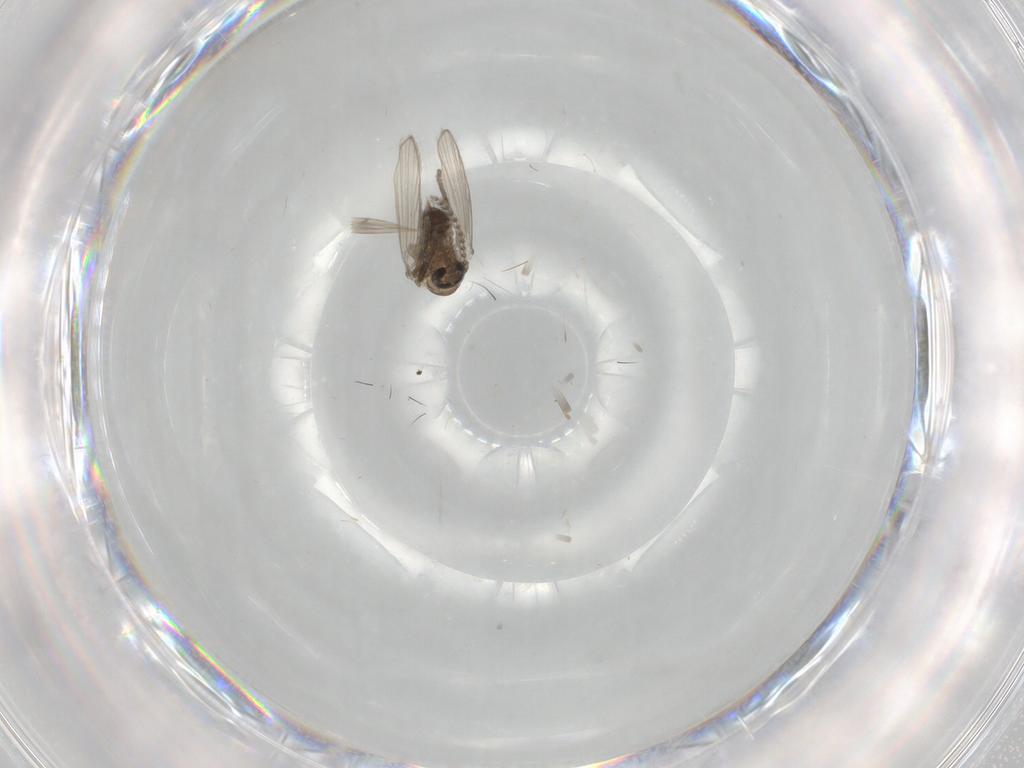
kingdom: Animalia
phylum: Arthropoda
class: Insecta
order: Diptera
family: Psychodidae
